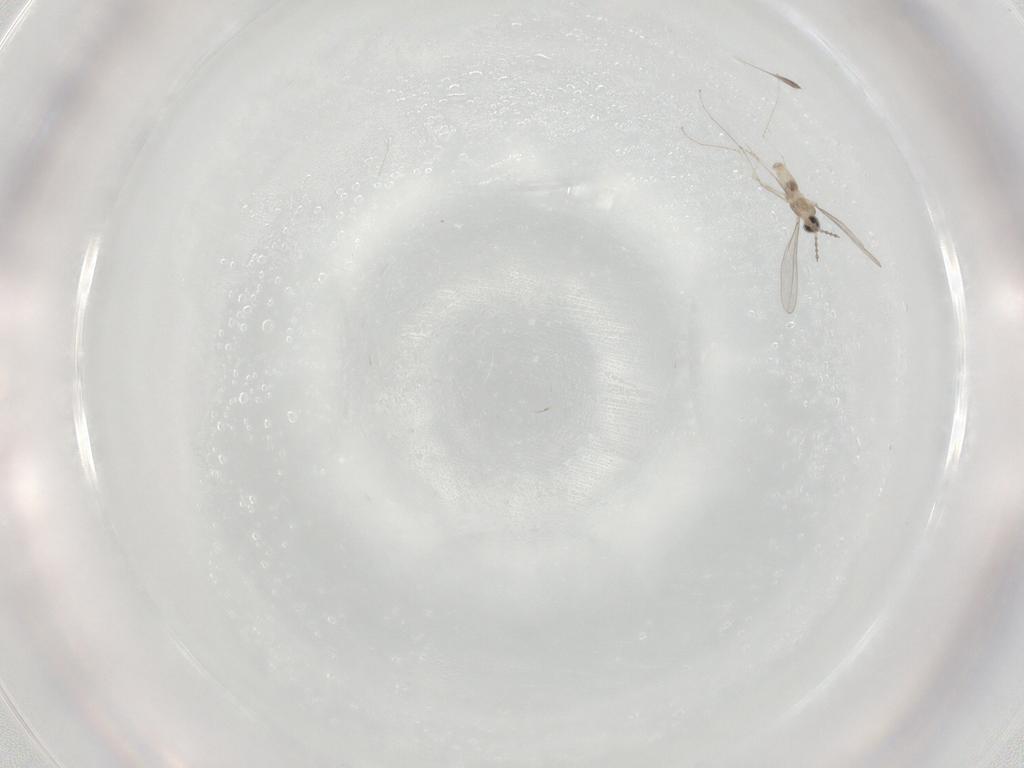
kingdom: Animalia
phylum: Arthropoda
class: Insecta
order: Diptera
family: Cecidomyiidae
